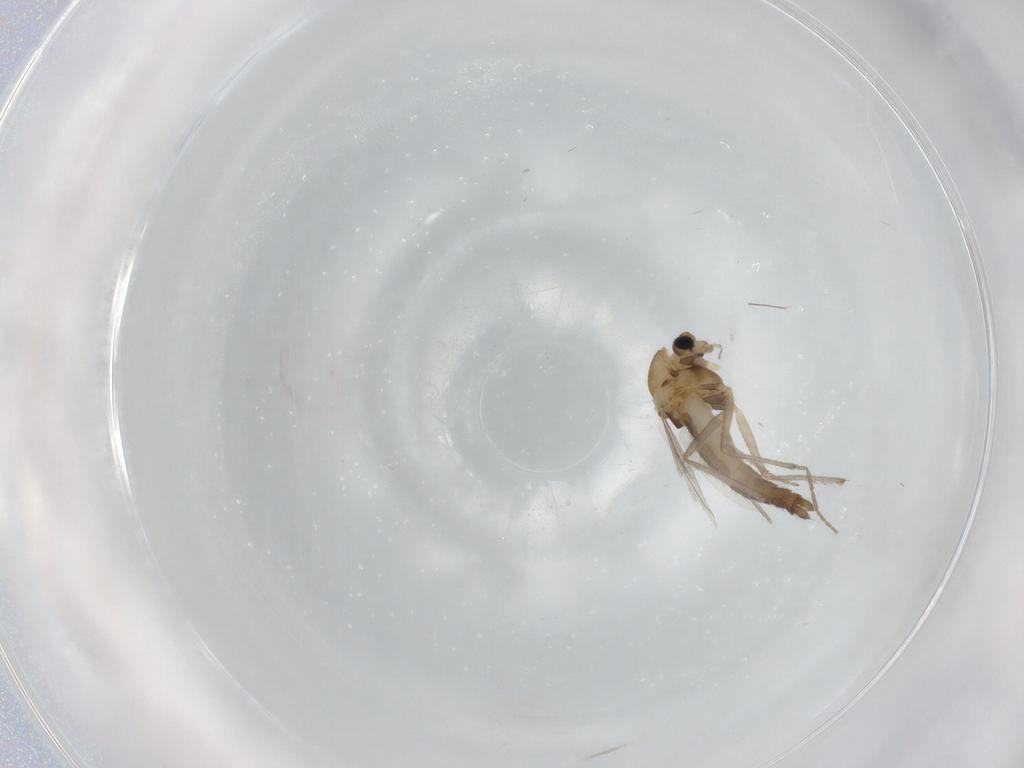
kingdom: Animalia
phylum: Arthropoda
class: Insecta
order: Diptera
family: Chironomidae
